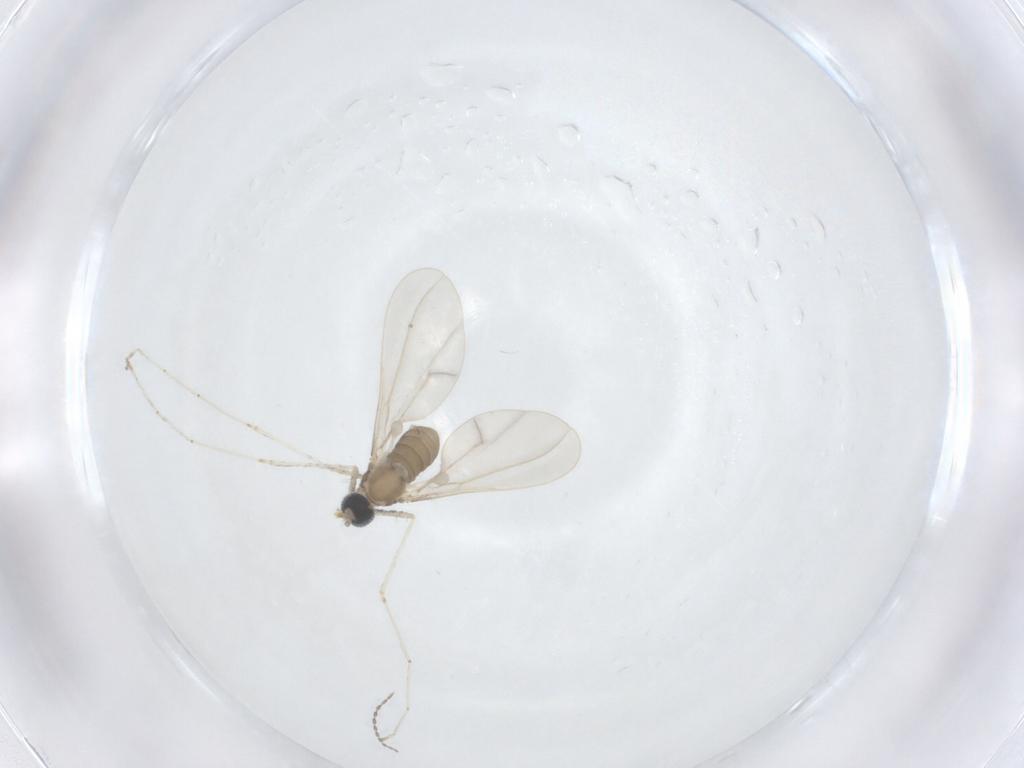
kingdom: Animalia
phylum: Arthropoda
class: Insecta
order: Diptera
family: Cecidomyiidae
